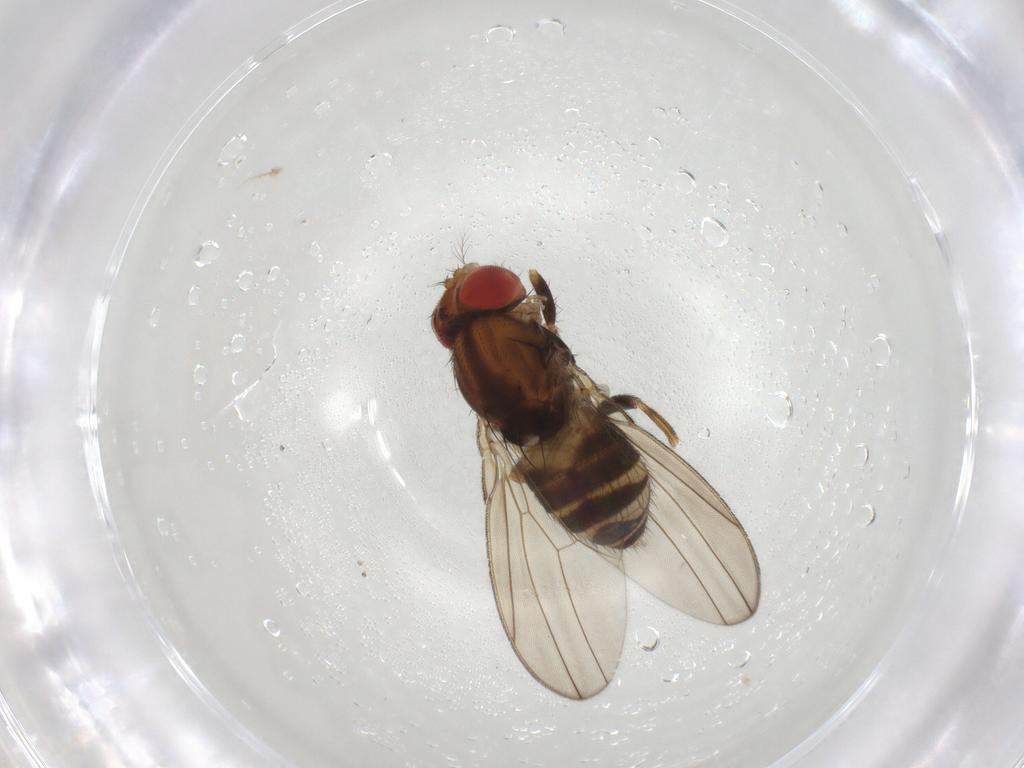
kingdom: Animalia
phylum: Arthropoda
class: Insecta
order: Diptera
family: Drosophilidae
